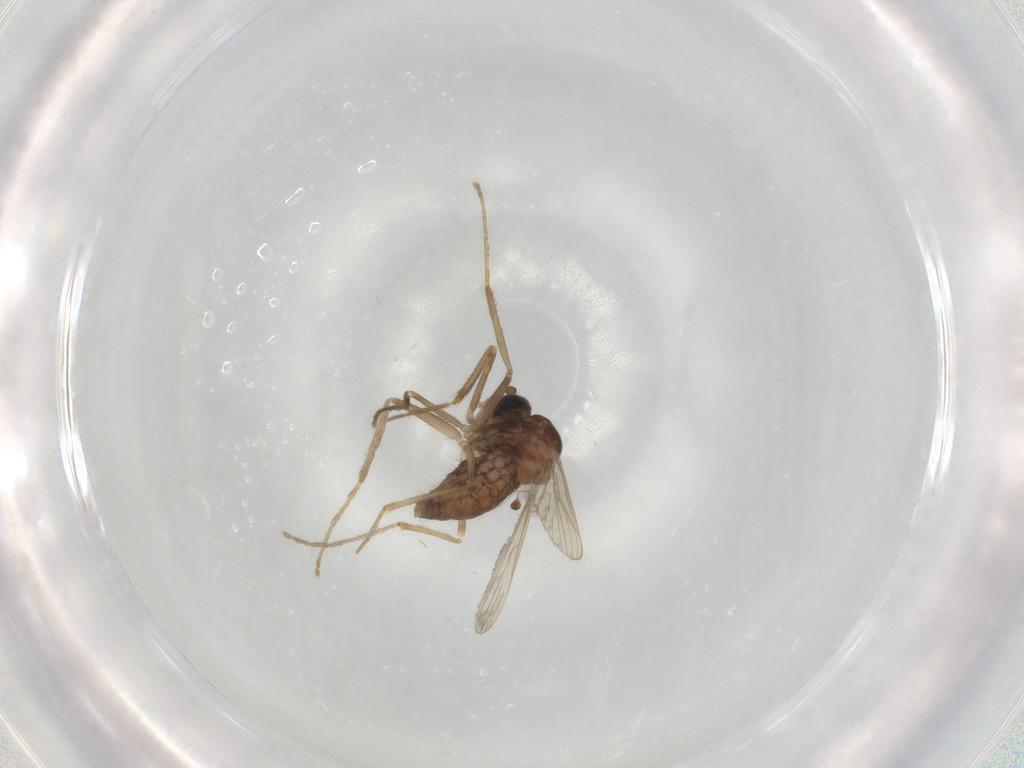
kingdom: Animalia
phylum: Arthropoda
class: Insecta
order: Diptera
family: Corethrellidae
